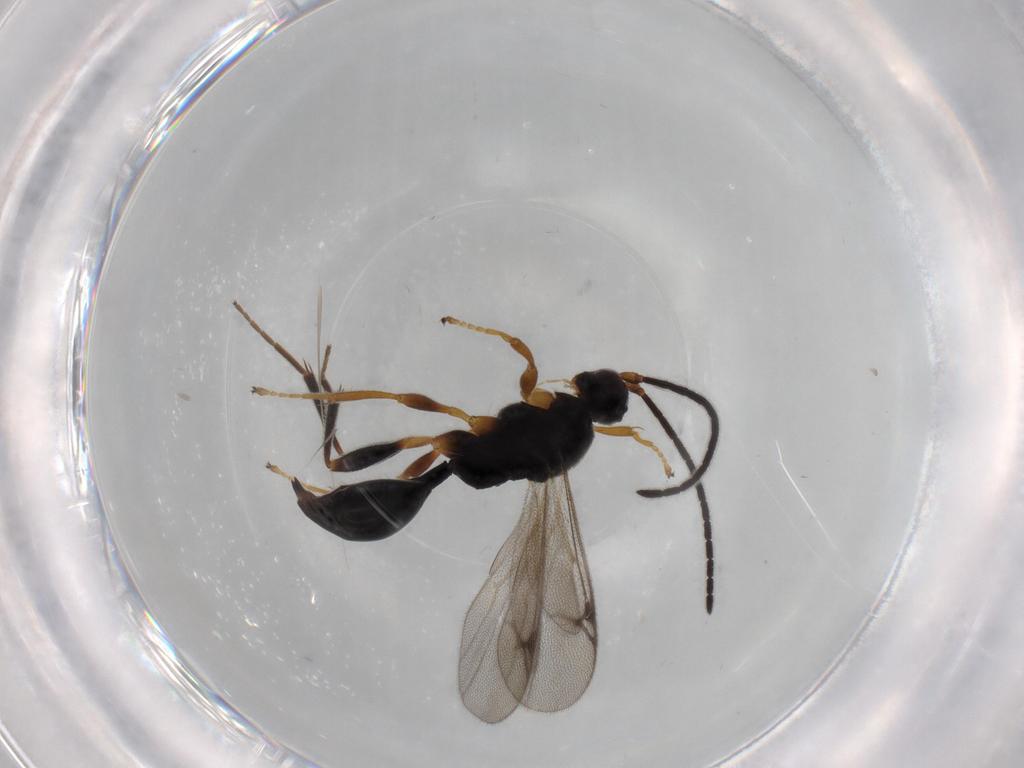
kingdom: Animalia
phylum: Arthropoda
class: Insecta
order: Hymenoptera
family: Proctotrupidae
